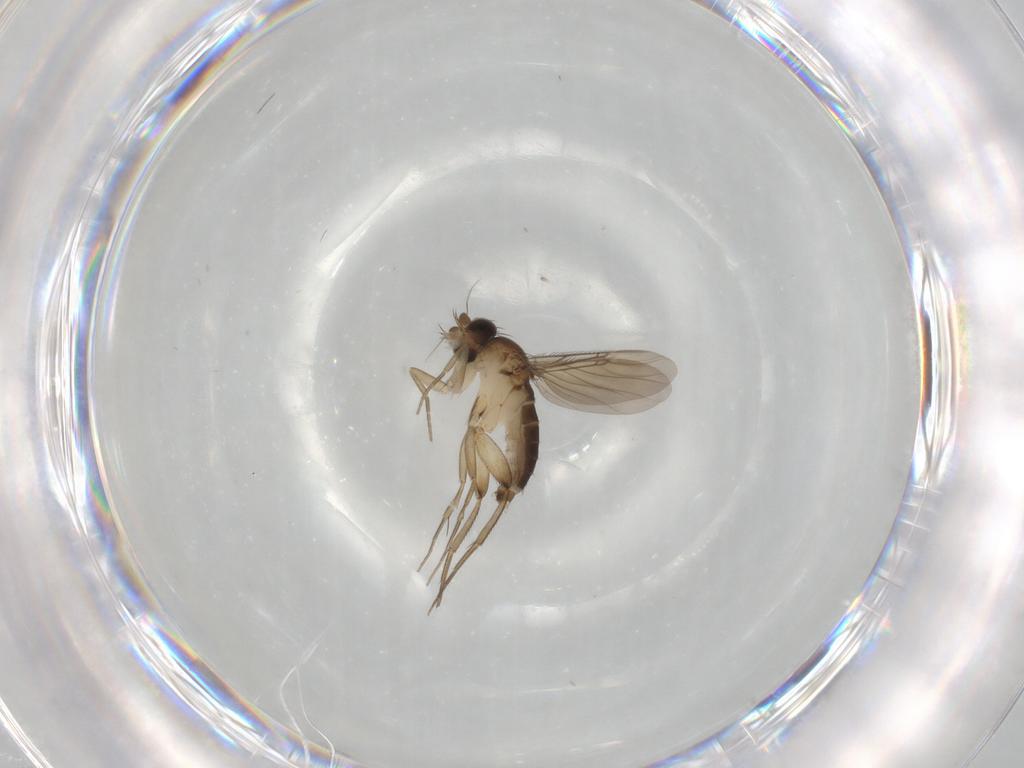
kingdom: Animalia
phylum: Arthropoda
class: Insecta
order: Diptera
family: Phoridae
